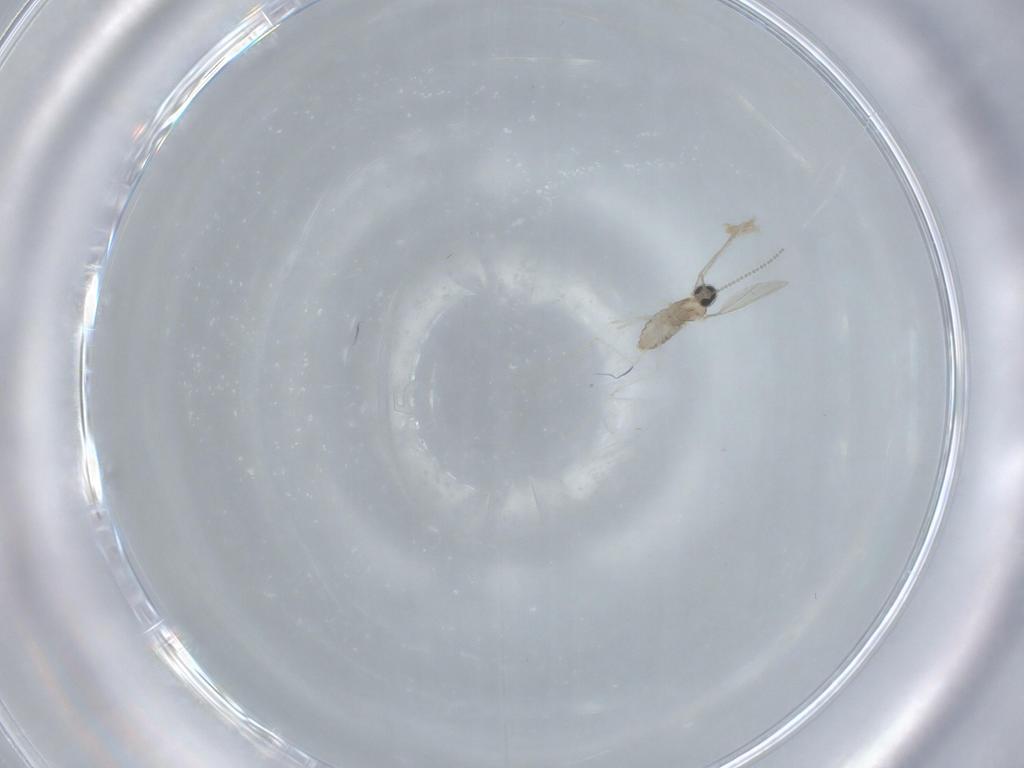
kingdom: Animalia
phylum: Arthropoda
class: Insecta
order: Diptera
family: Cecidomyiidae
